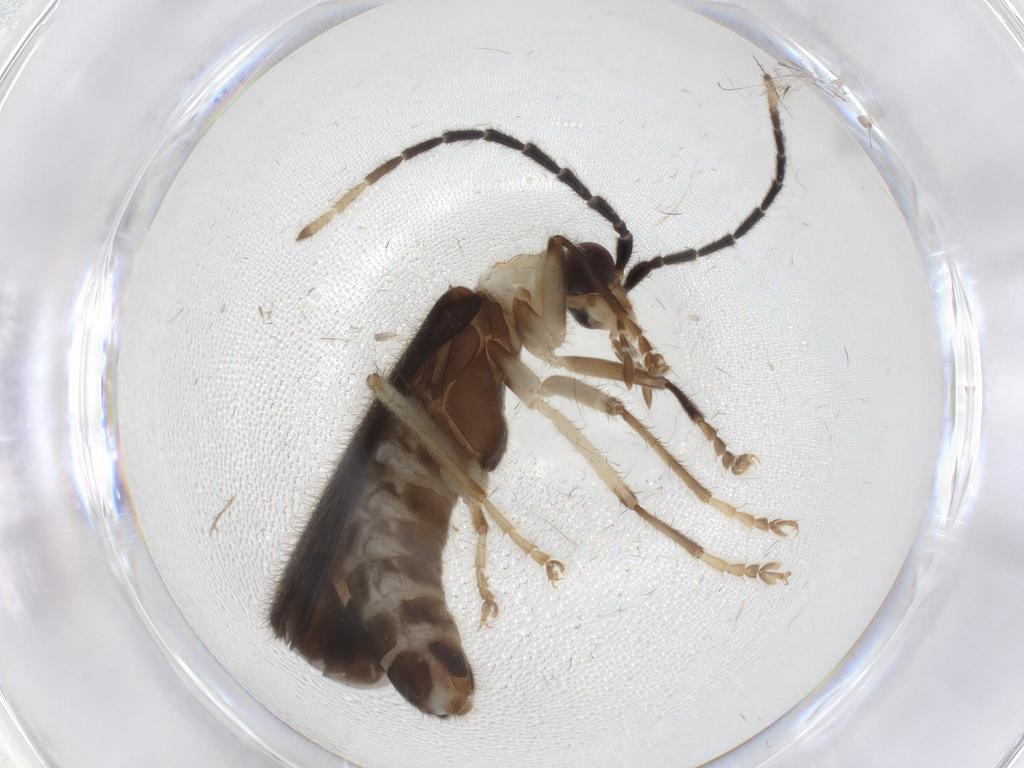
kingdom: Animalia
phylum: Arthropoda
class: Insecta
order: Coleoptera
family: Cantharidae
